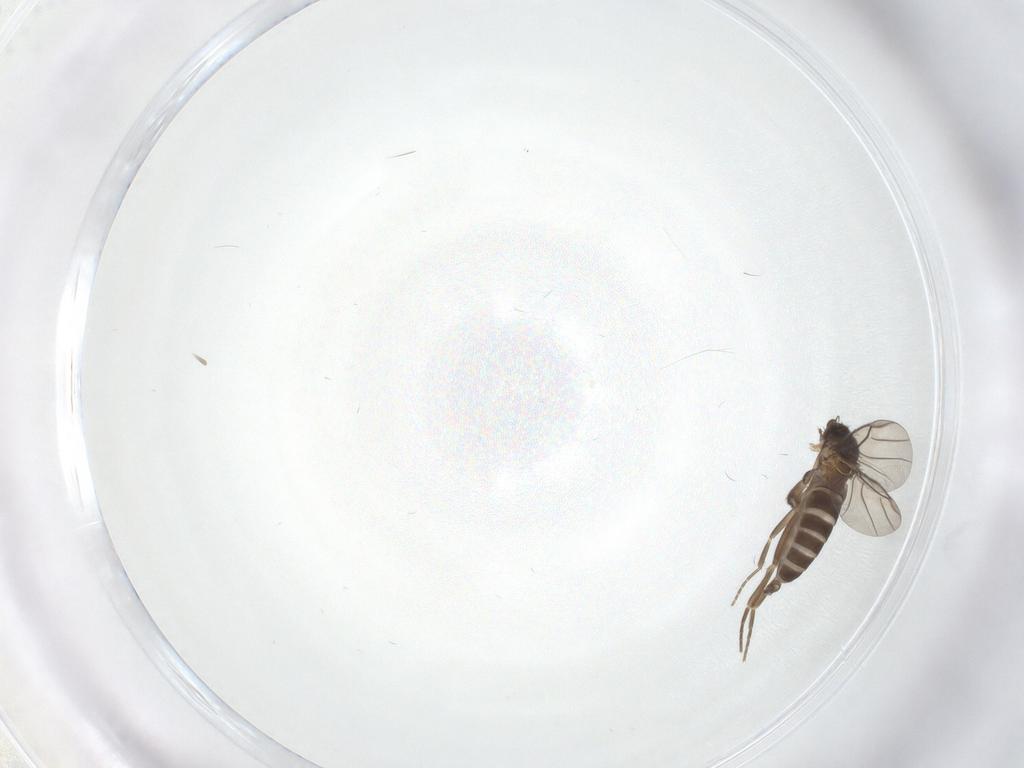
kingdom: Animalia
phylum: Arthropoda
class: Insecta
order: Diptera
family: Phoridae
